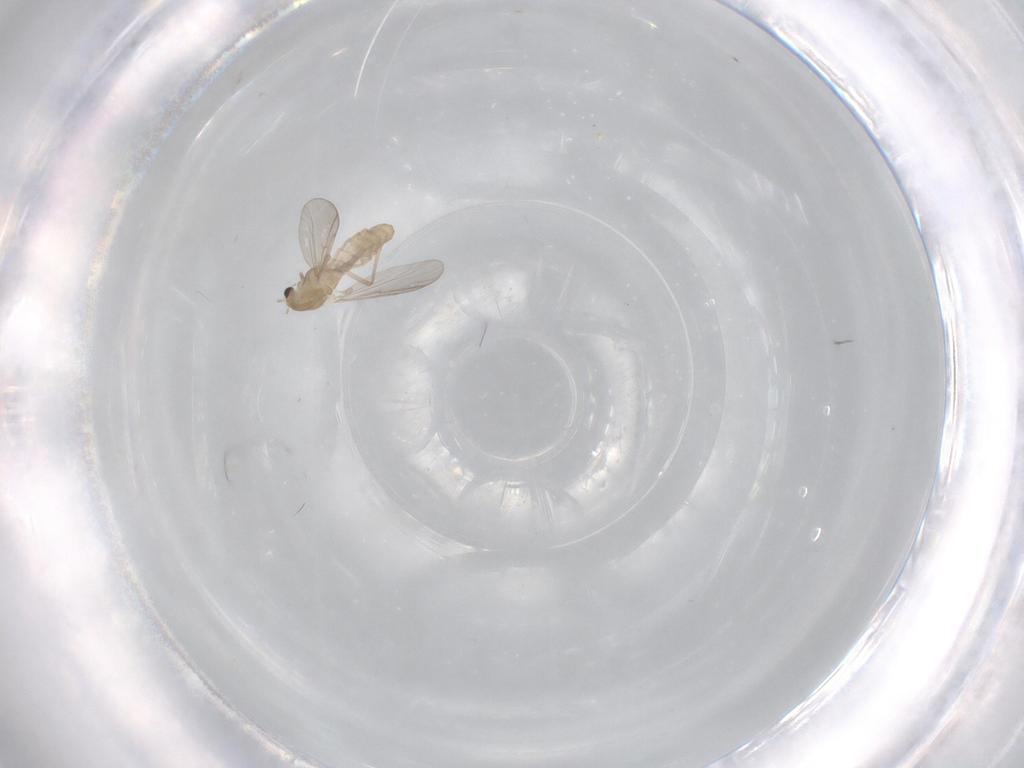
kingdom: Animalia
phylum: Arthropoda
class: Insecta
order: Diptera
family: Chironomidae
